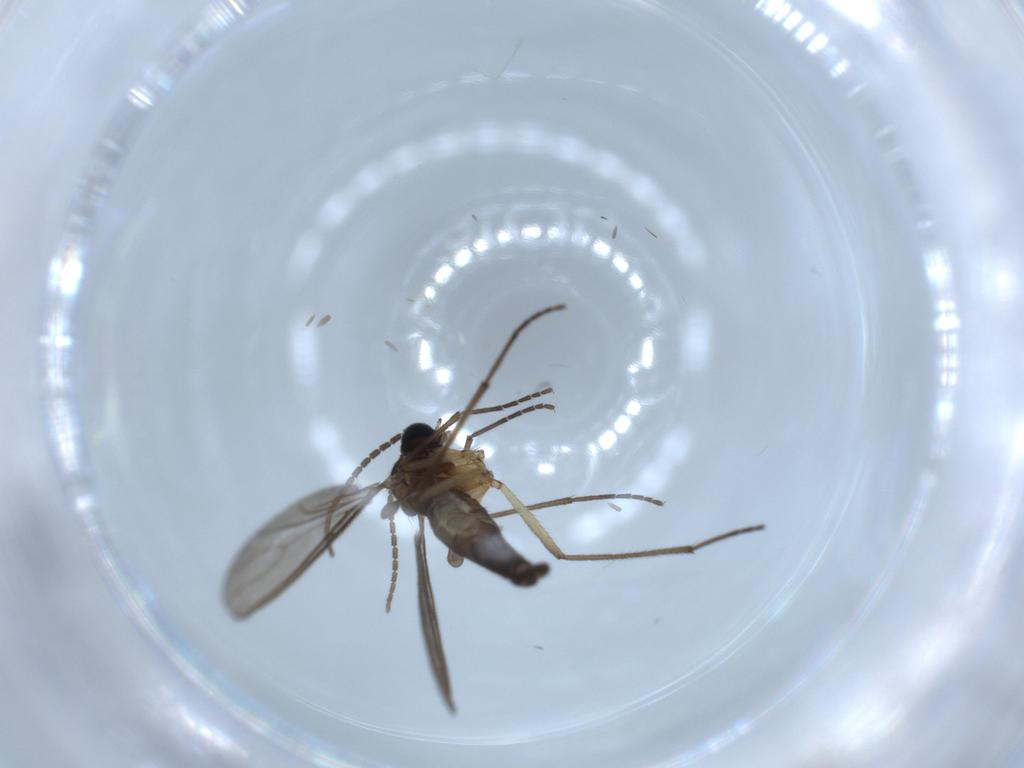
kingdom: Animalia
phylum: Arthropoda
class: Insecta
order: Diptera
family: Sciaridae
